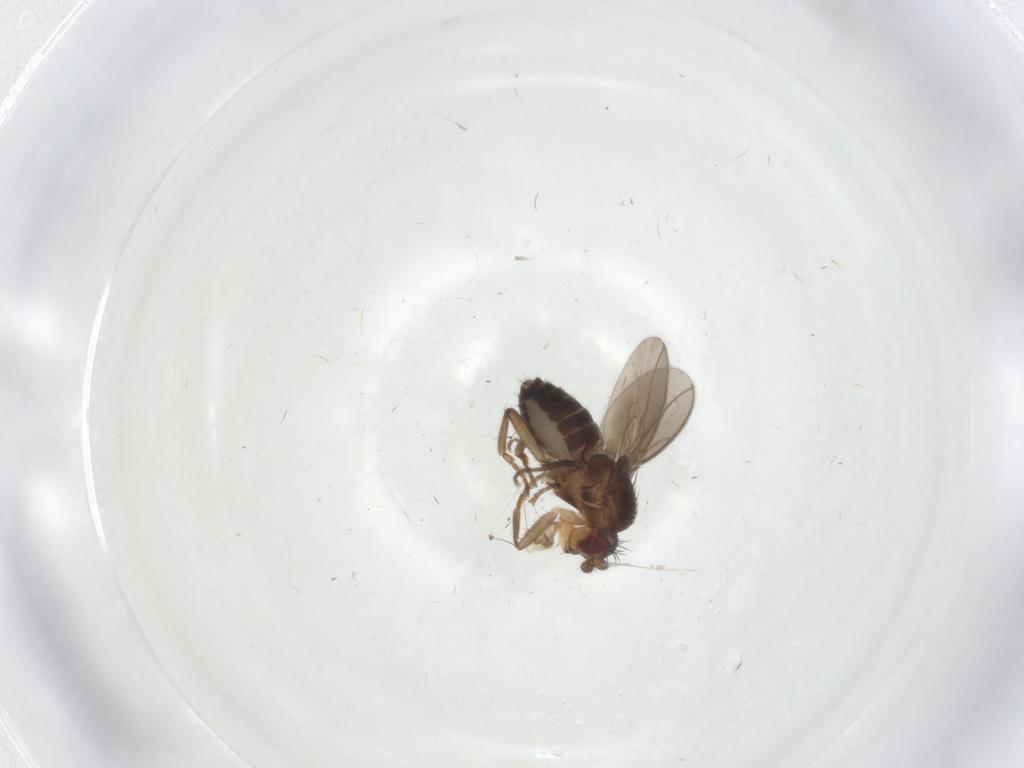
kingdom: Animalia
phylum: Arthropoda
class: Insecta
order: Diptera
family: Sphaeroceridae
